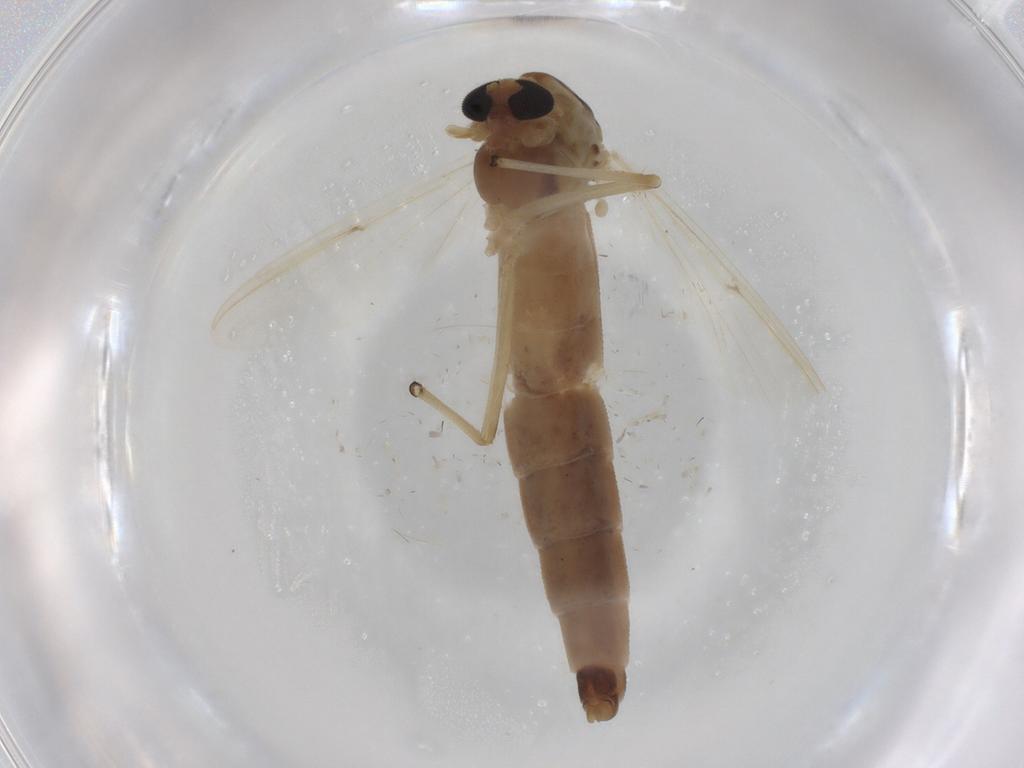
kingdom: Animalia
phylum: Arthropoda
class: Insecta
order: Diptera
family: Chironomidae
